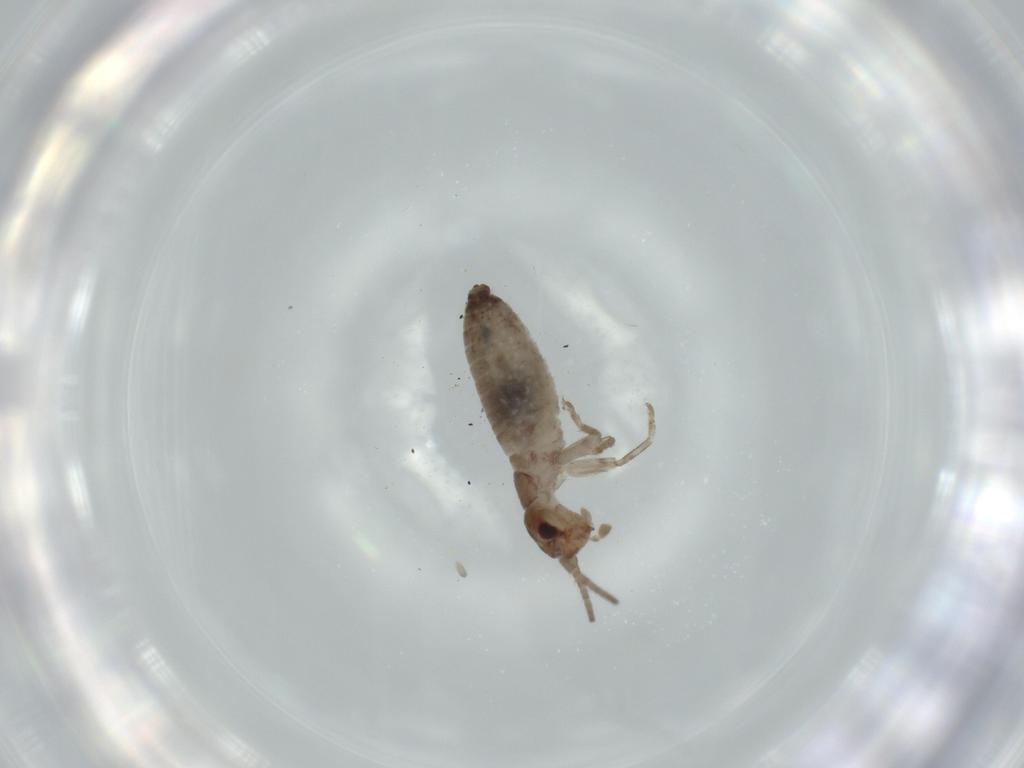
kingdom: Animalia
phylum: Arthropoda
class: Insecta
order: Orthoptera
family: Gryllidae
